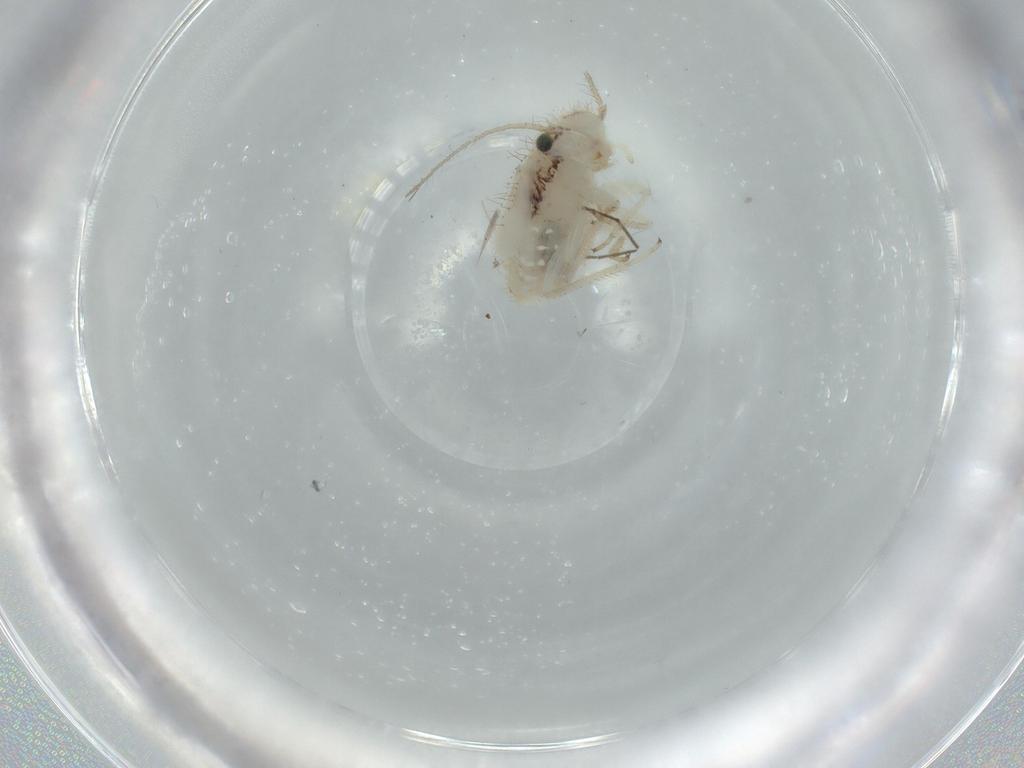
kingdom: Animalia
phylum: Arthropoda
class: Insecta
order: Psocodea
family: Pseudocaeciliidae
